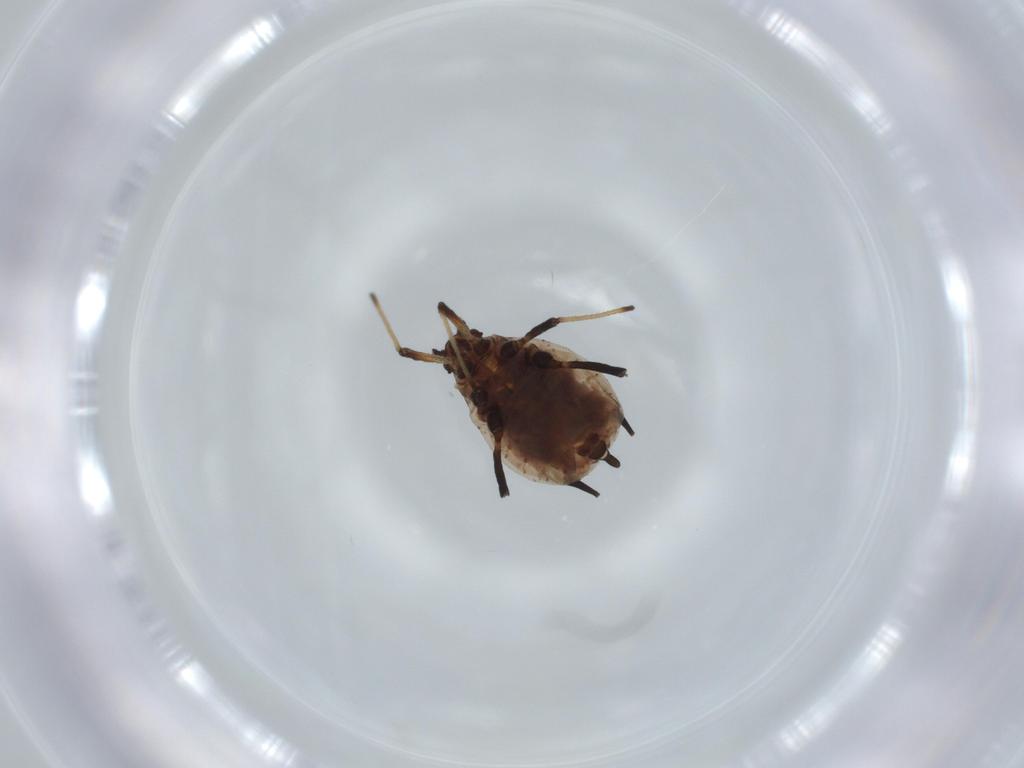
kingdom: Animalia
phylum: Arthropoda
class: Insecta
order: Hemiptera
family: Aphididae
